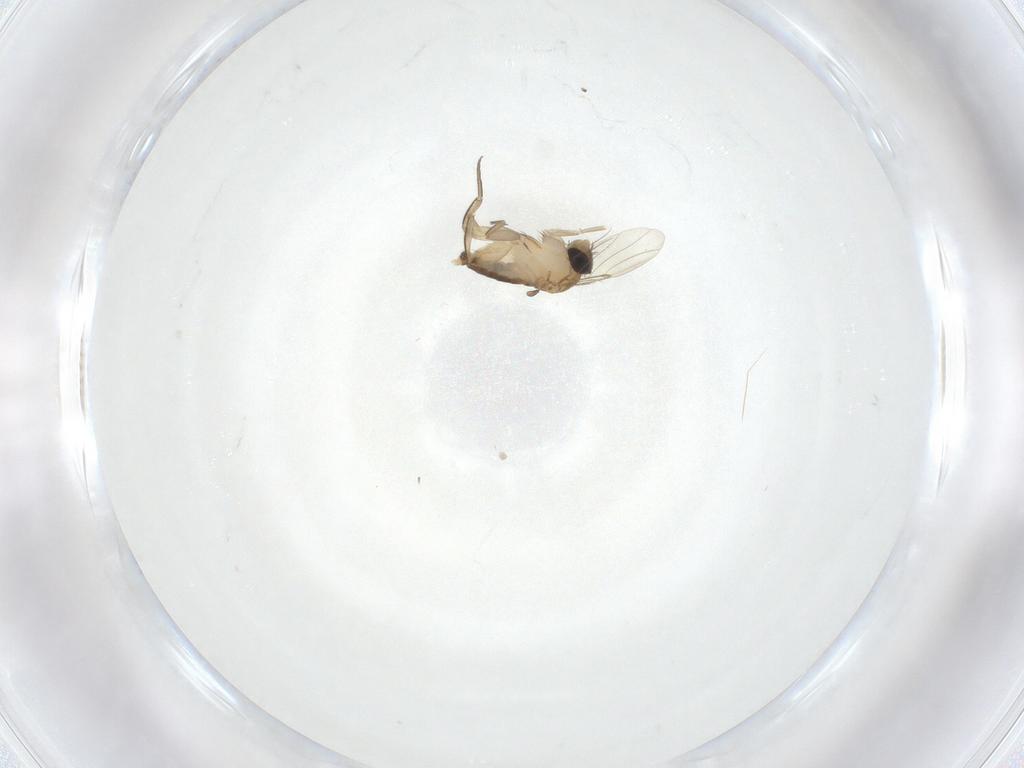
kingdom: Animalia
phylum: Arthropoda
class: Insecta
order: Diptera
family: Phoridae
